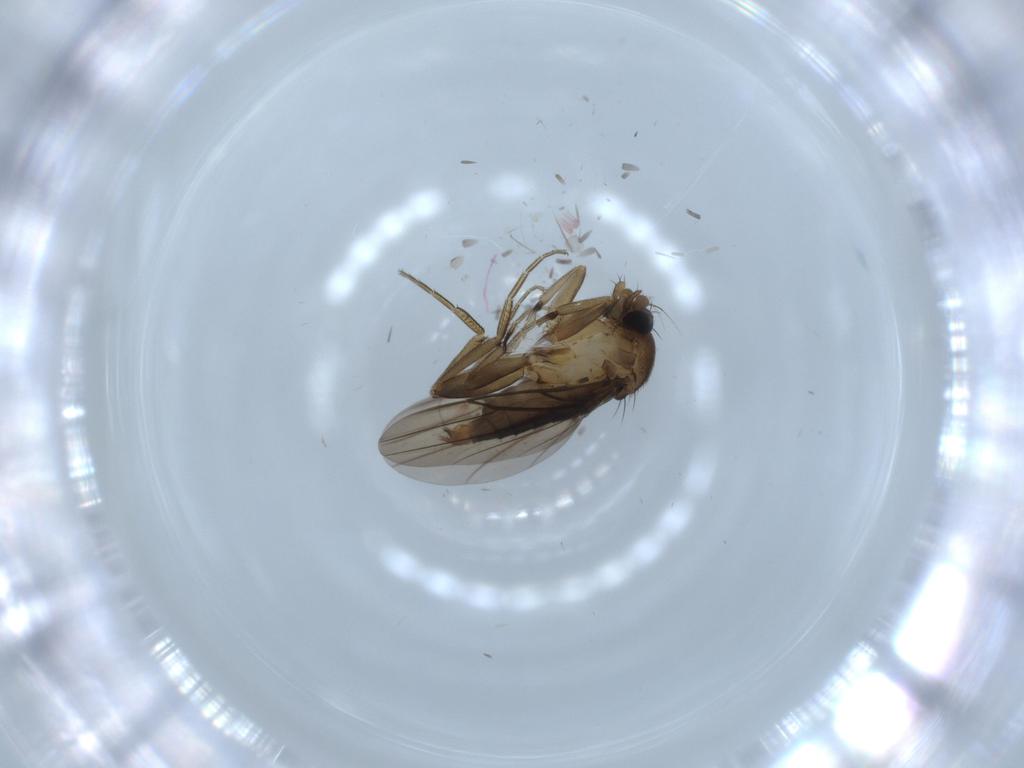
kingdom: Animalia
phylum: Arthropoda
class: Insecta
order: Diptera
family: Phoridae
